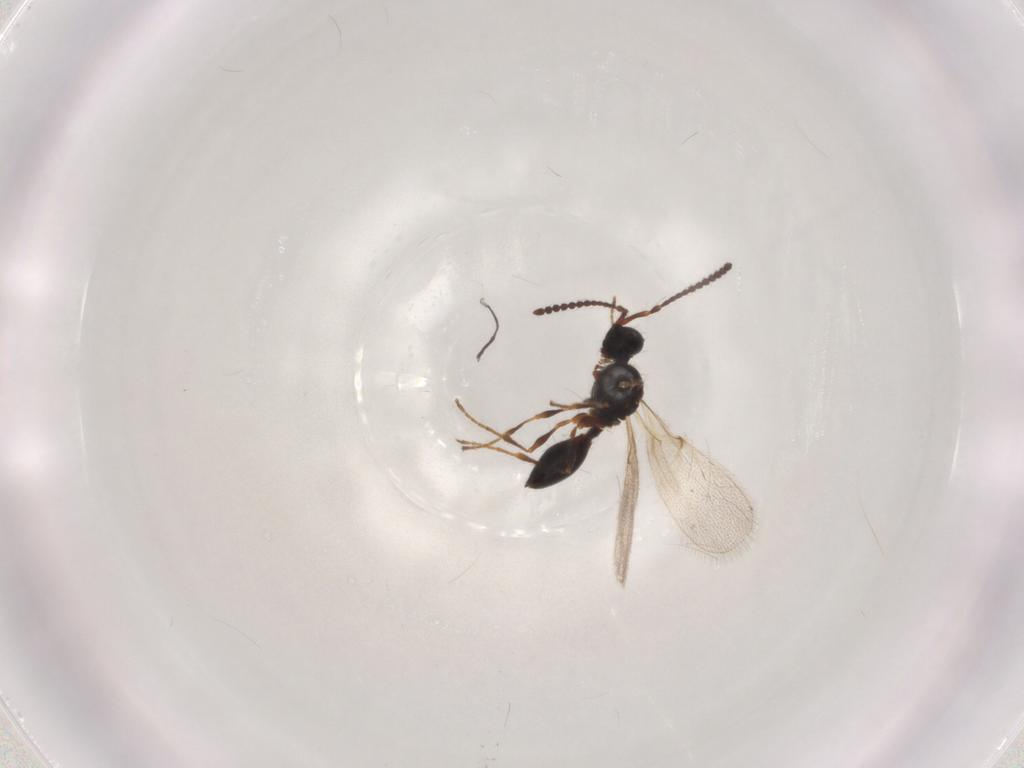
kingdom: Animalia
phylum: Arthropoda
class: Insecta
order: Hymenoptera
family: Diapriidae
